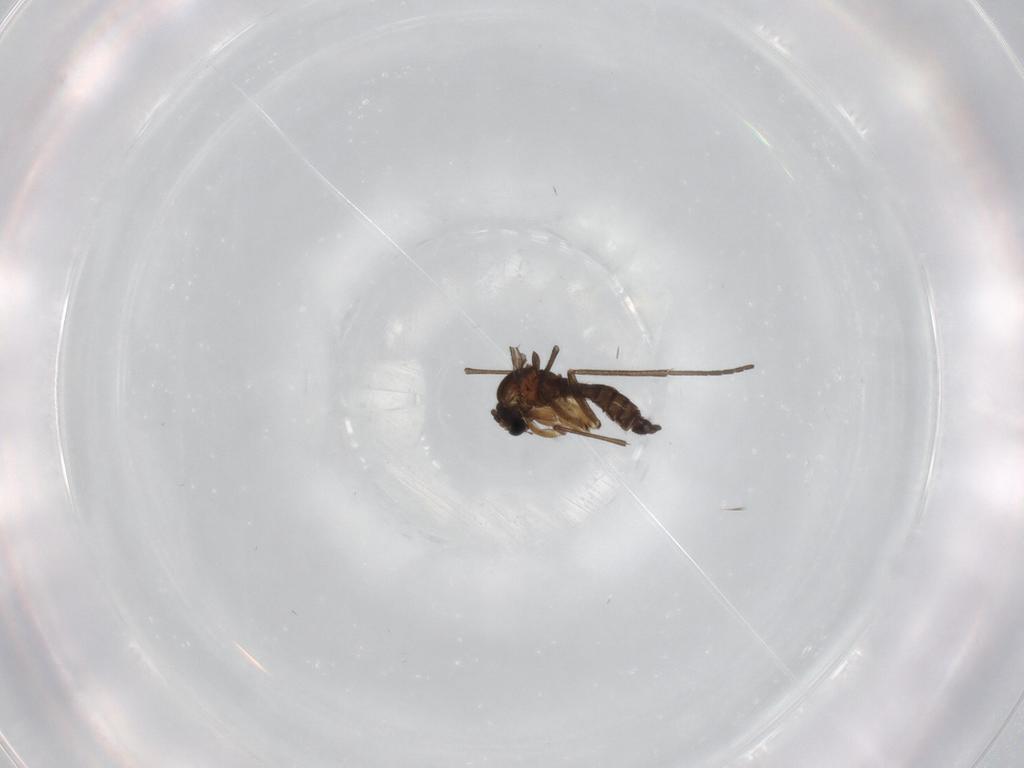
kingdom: Animalia
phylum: Arthropoda
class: Insecta
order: Diptera
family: Sciaridae
